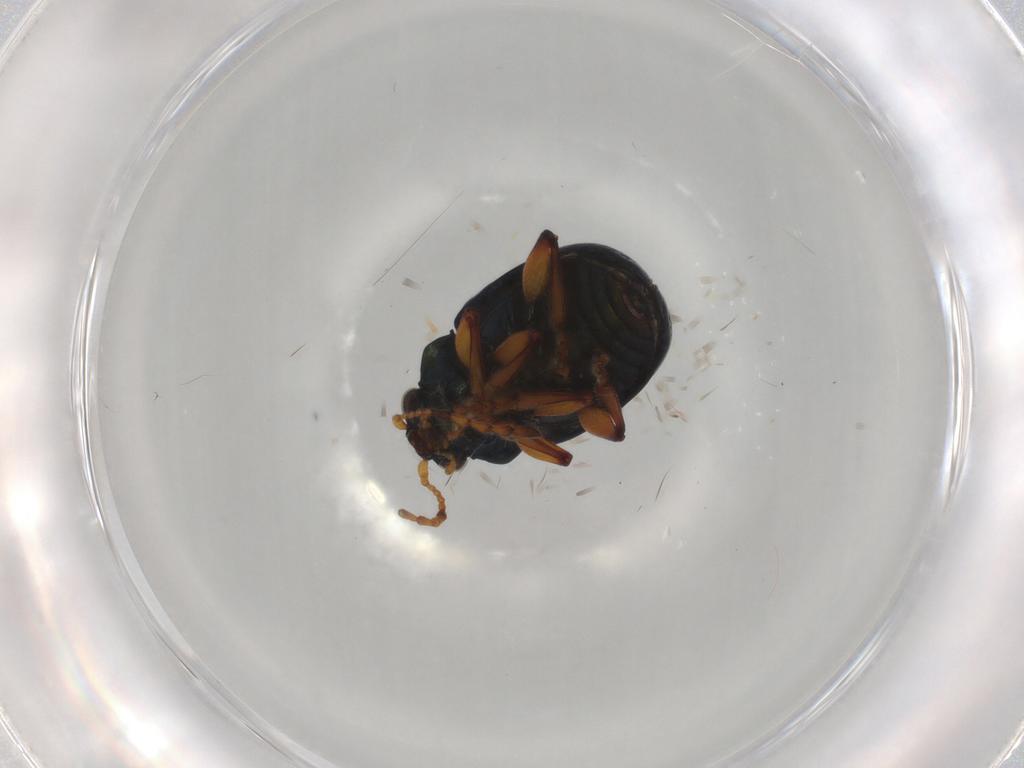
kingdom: Animalia
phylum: Arthropoda
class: Insecta
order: Coleoptera
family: Chrysomelidae
